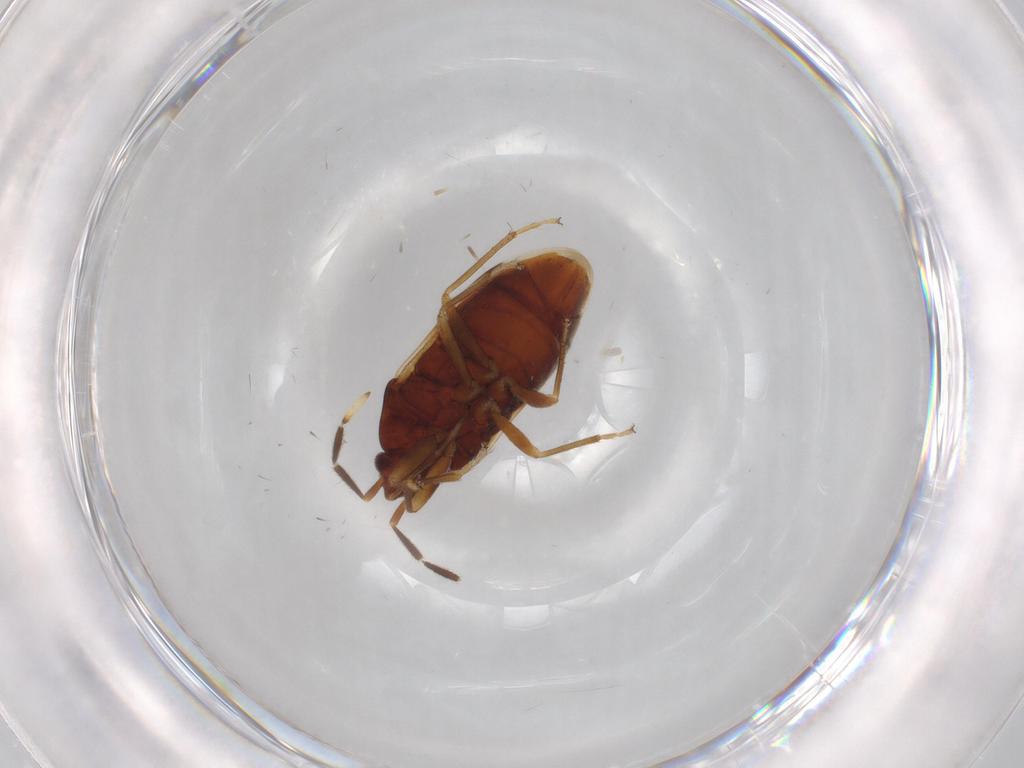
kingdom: Animalia
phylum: Arthropoda
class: Insecta
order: Hemiptera
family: Rhyparochromidae
